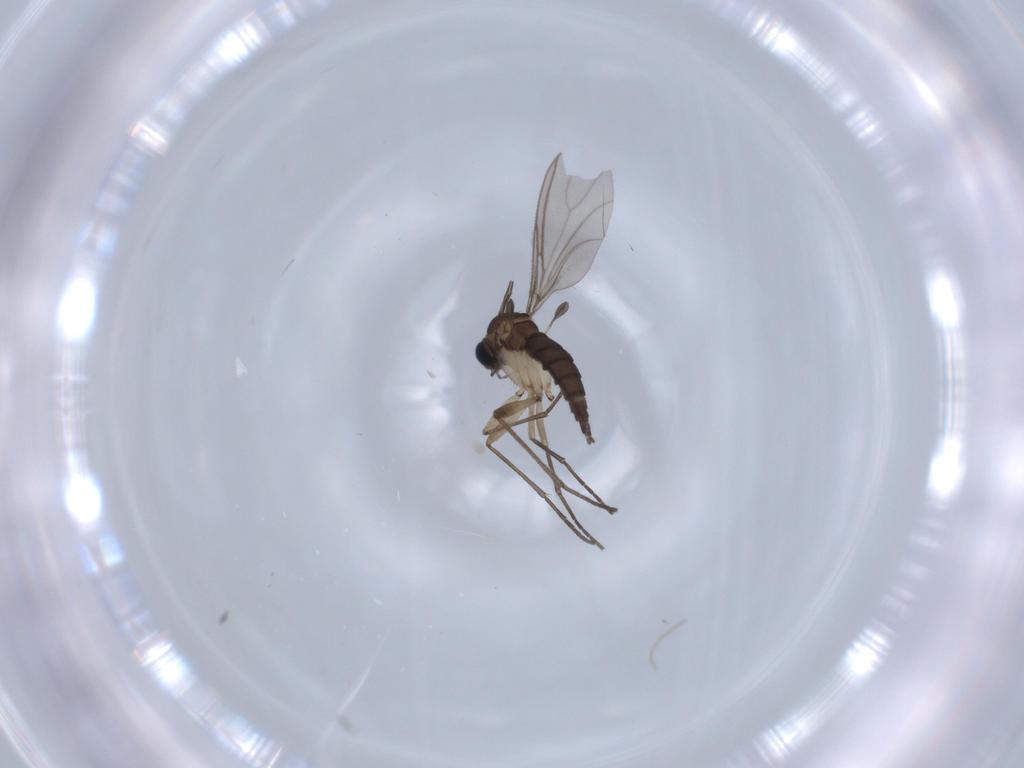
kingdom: Animalia
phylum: Arthropoda
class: Insecta
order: Diptera
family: Sciaridae
